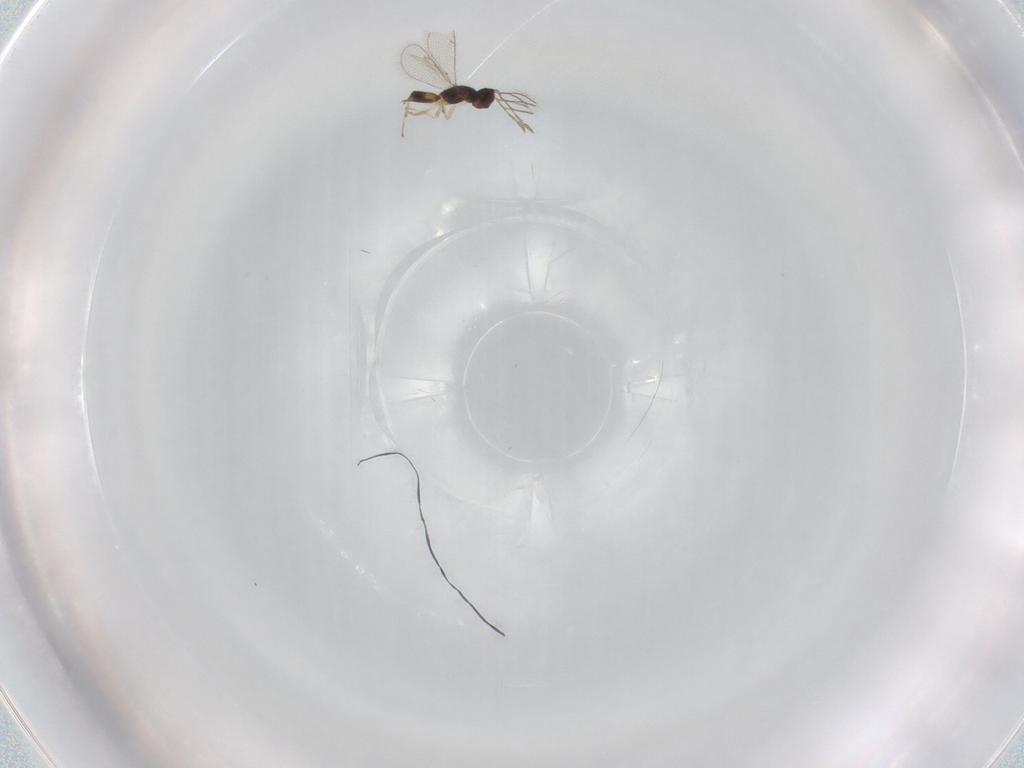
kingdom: Animalia
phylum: Arthropoda
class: Insecta
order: Hymenoptera
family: Eulophidae
